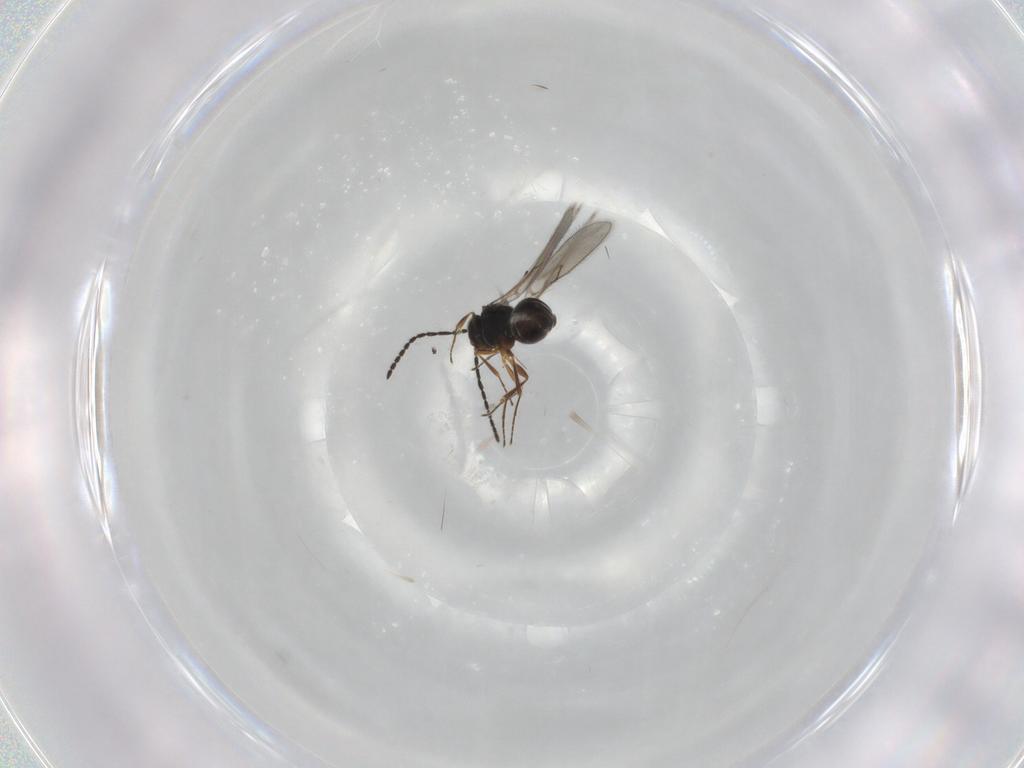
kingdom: Animalia
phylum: Arthropoda
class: Insecta
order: Hymenoptera
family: Scelionidae
